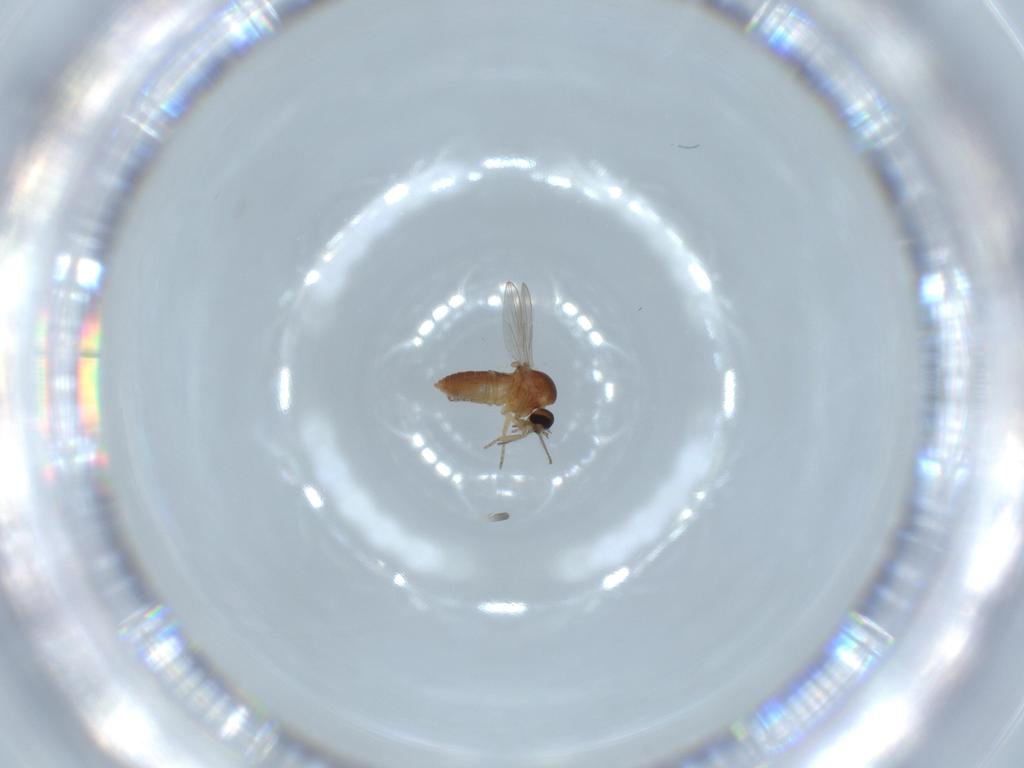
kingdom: Animalia
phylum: Arthropoda
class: Insecta
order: Diptera
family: Ceratopogonidae
